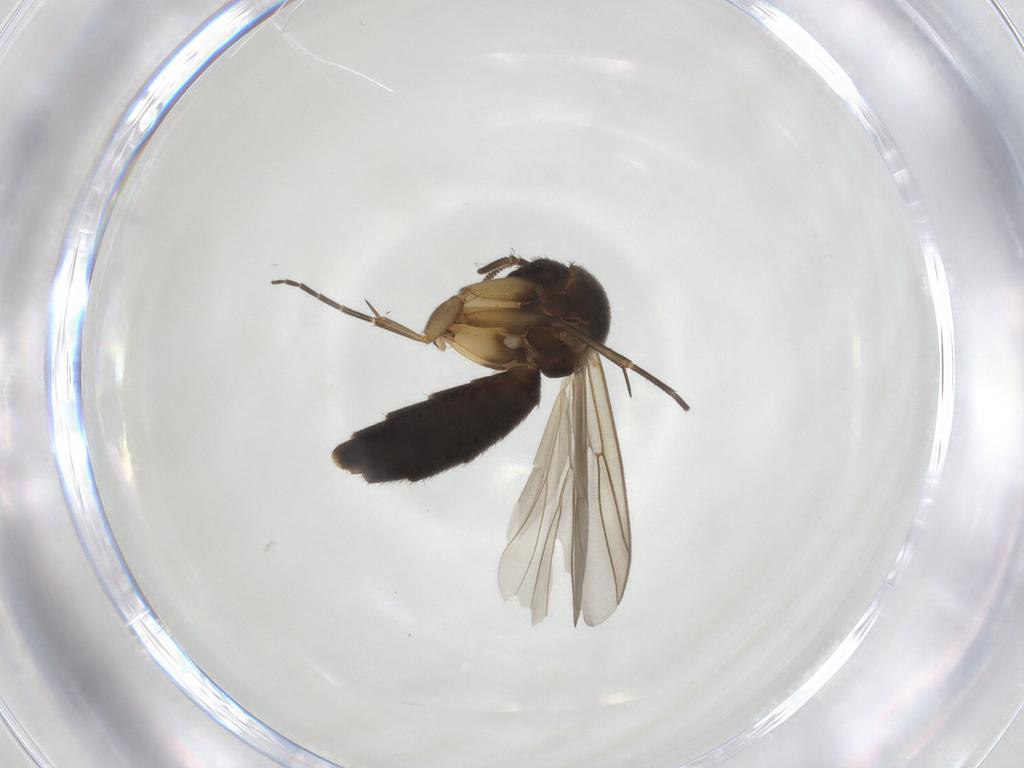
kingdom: Animalia
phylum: Arthropoda
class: Insecta
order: Diptera
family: Mycetophilidae
